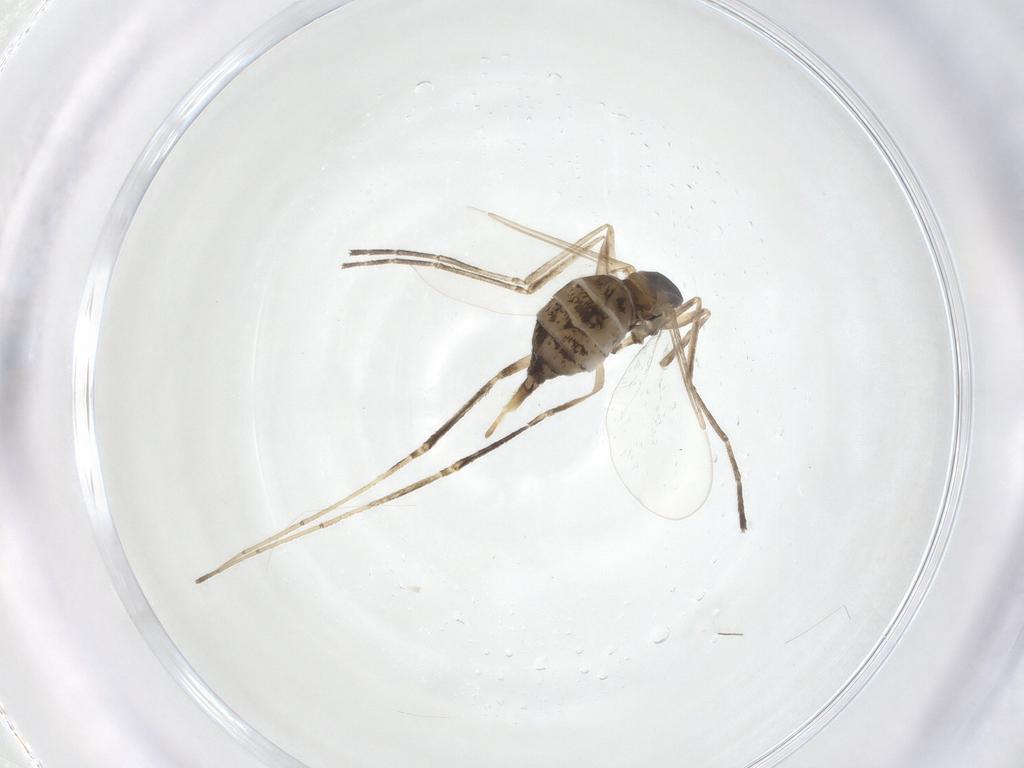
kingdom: Animalia
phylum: Arthropoda
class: Insecta
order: Diptera
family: Cecidomyiidae
